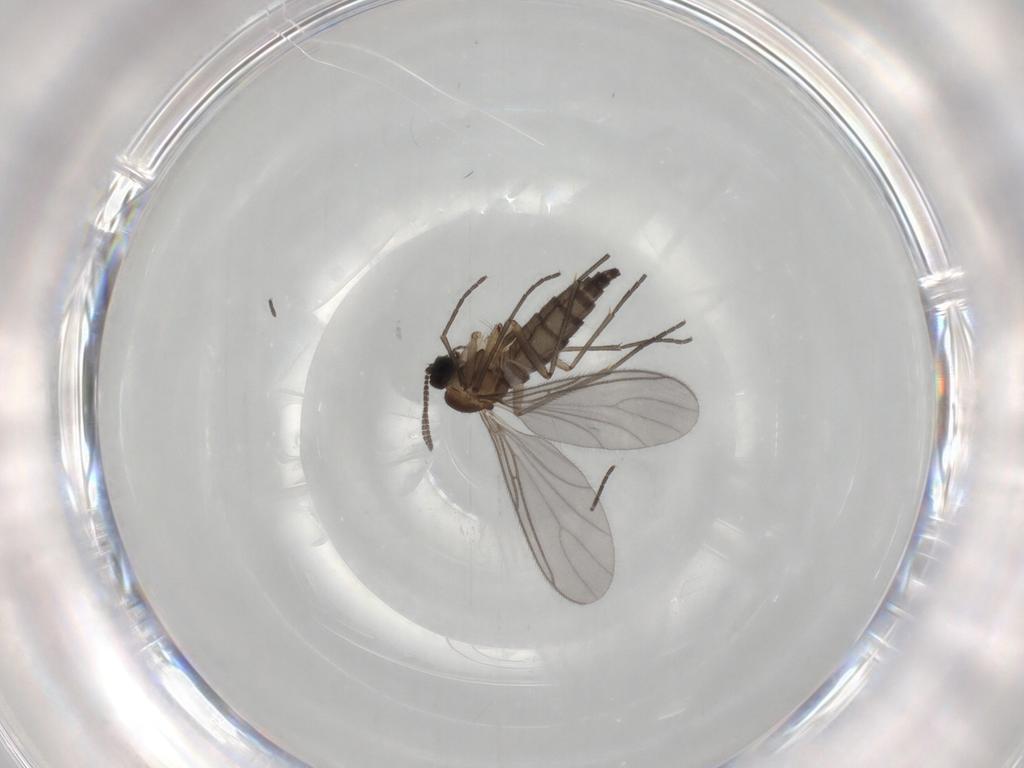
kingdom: Animalia
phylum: Arthropoda
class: Insecta
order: Diptera
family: Sciaridae
